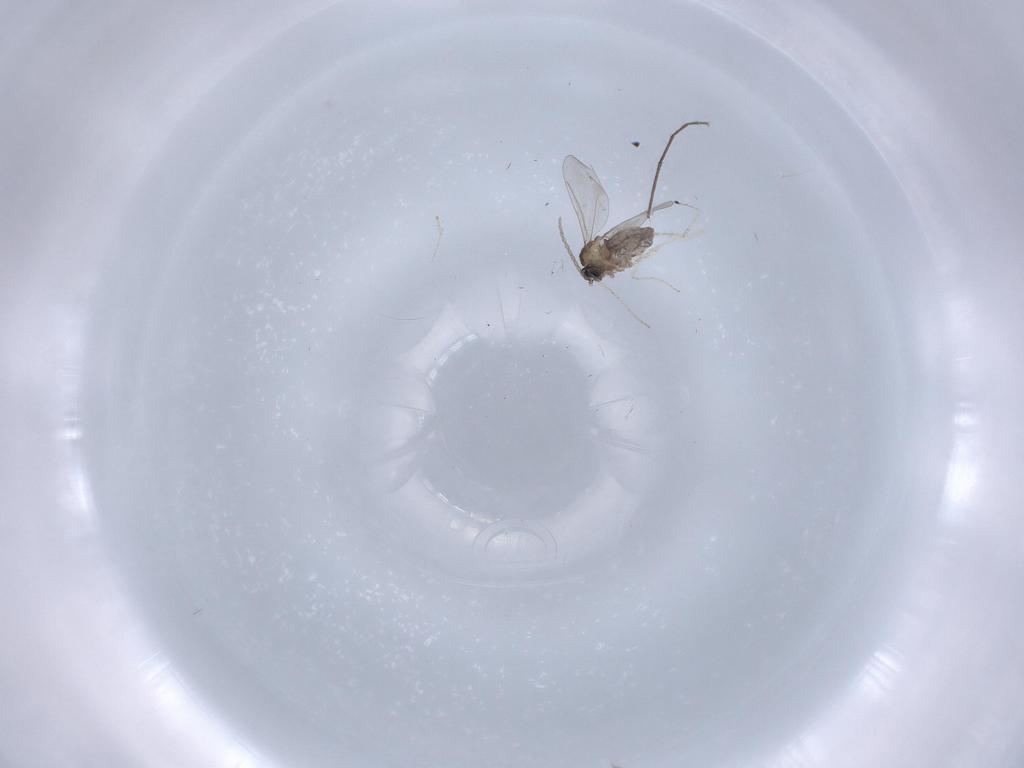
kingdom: Animalia
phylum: Arthropoda
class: Insecta
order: Diptera
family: Cecidomyiidae
